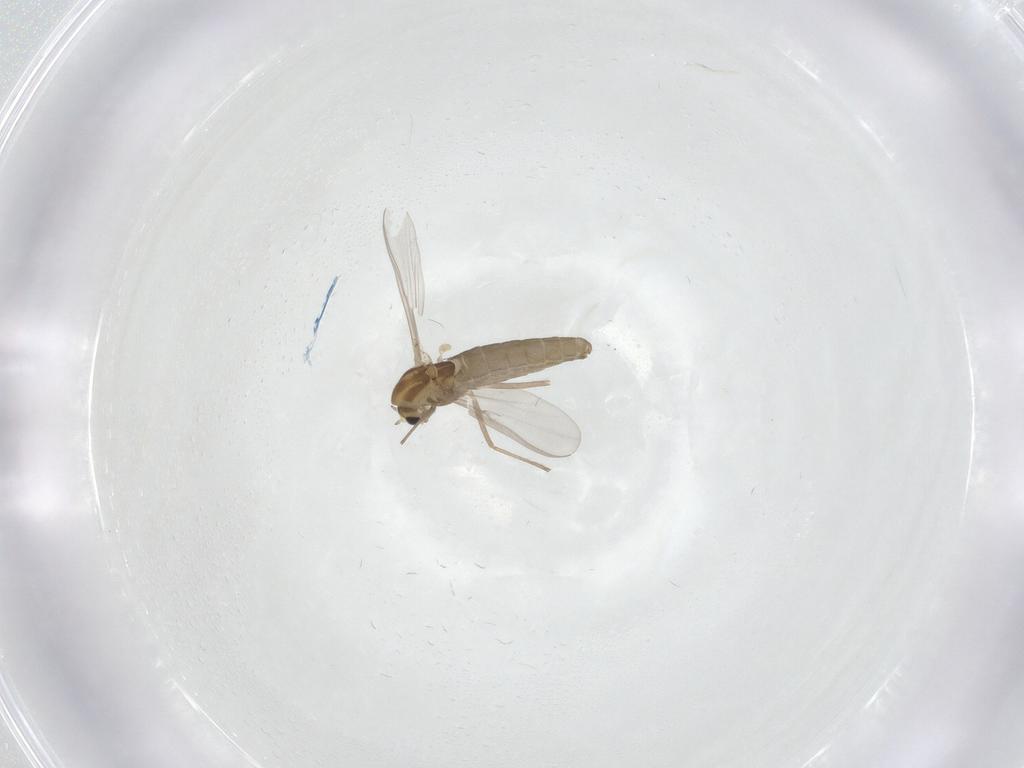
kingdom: Animalia
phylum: Arthropoda
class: Insecta
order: Diptera
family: Chironomidae
